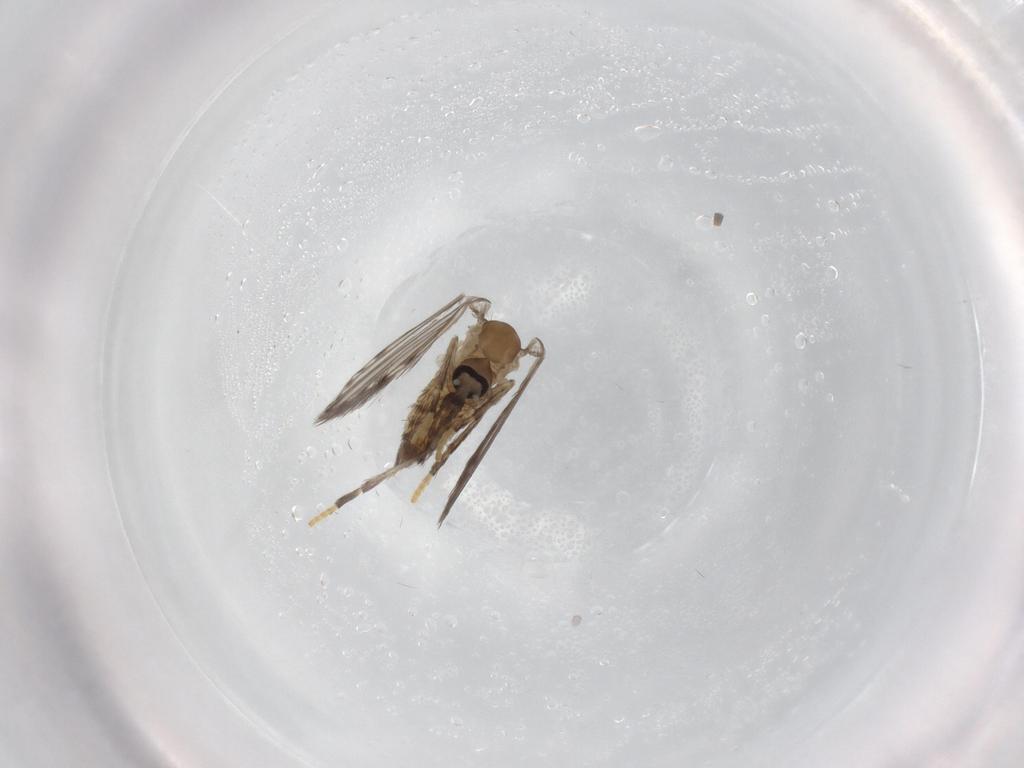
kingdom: Animalia
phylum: Arthropoda
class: Insecta
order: Diptera
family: Psychodidae
